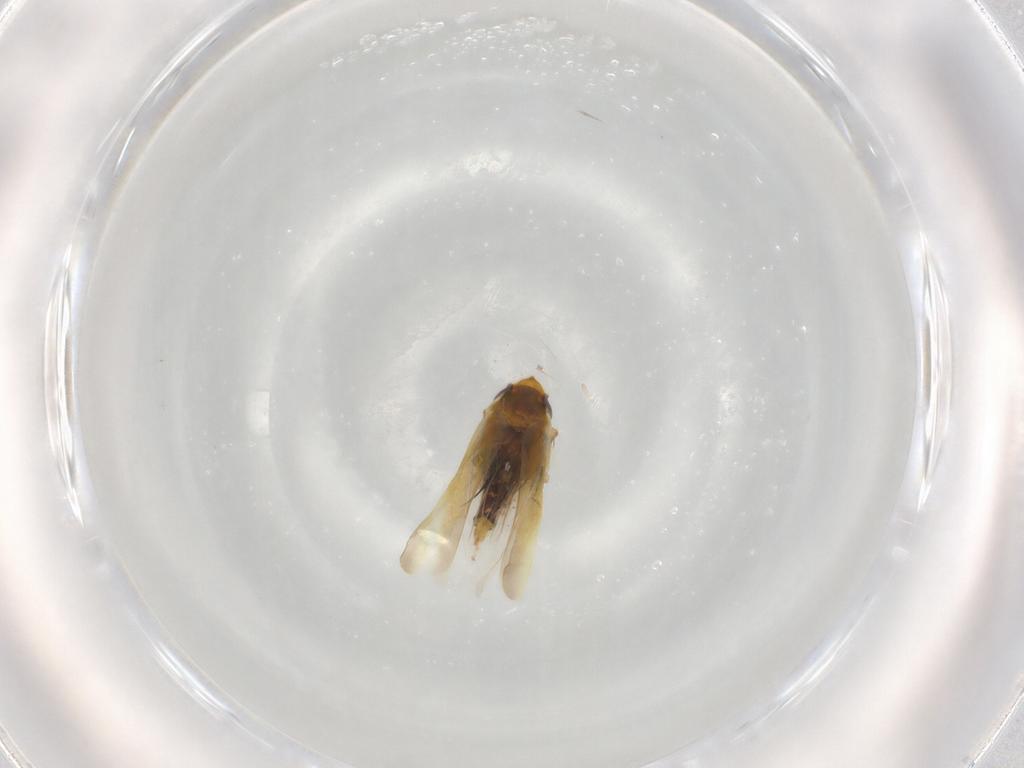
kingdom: Animalia
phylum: Arthropoda
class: Insecta
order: Hemiptera
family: Cicadellidae
